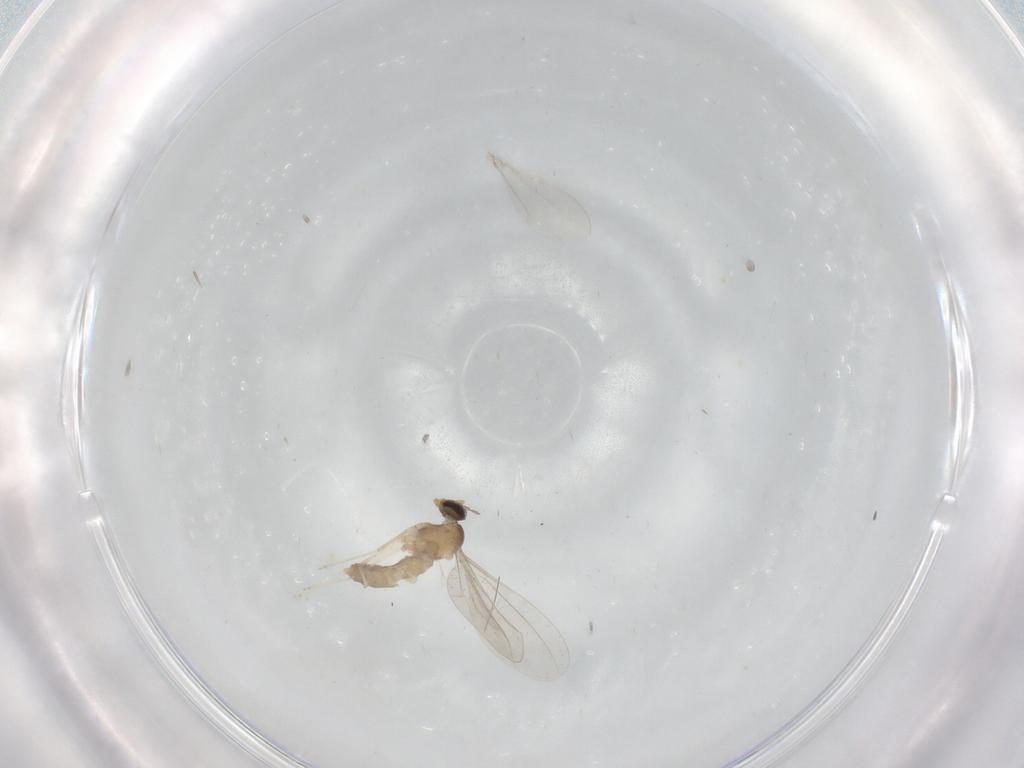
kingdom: Animalia
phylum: Arthropoda
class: Insecta
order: Diptera
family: Cecidomyiidae
